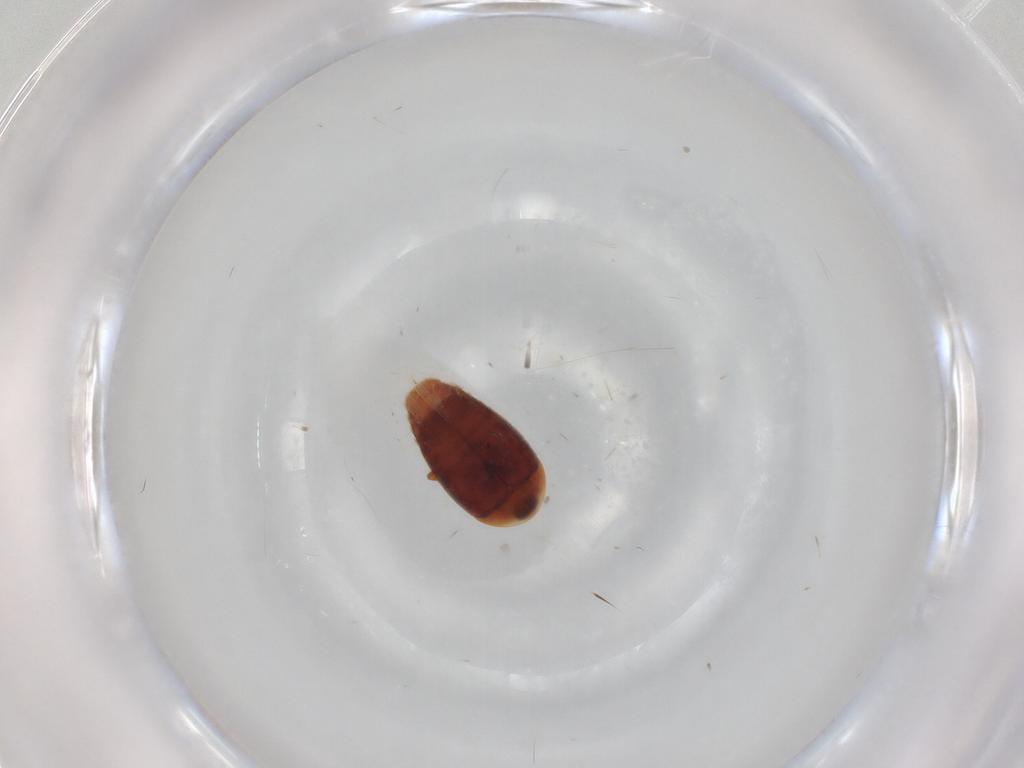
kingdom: Animalia
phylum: Arthropoda
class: Insecta
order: Coleoptera
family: Corylophidae
